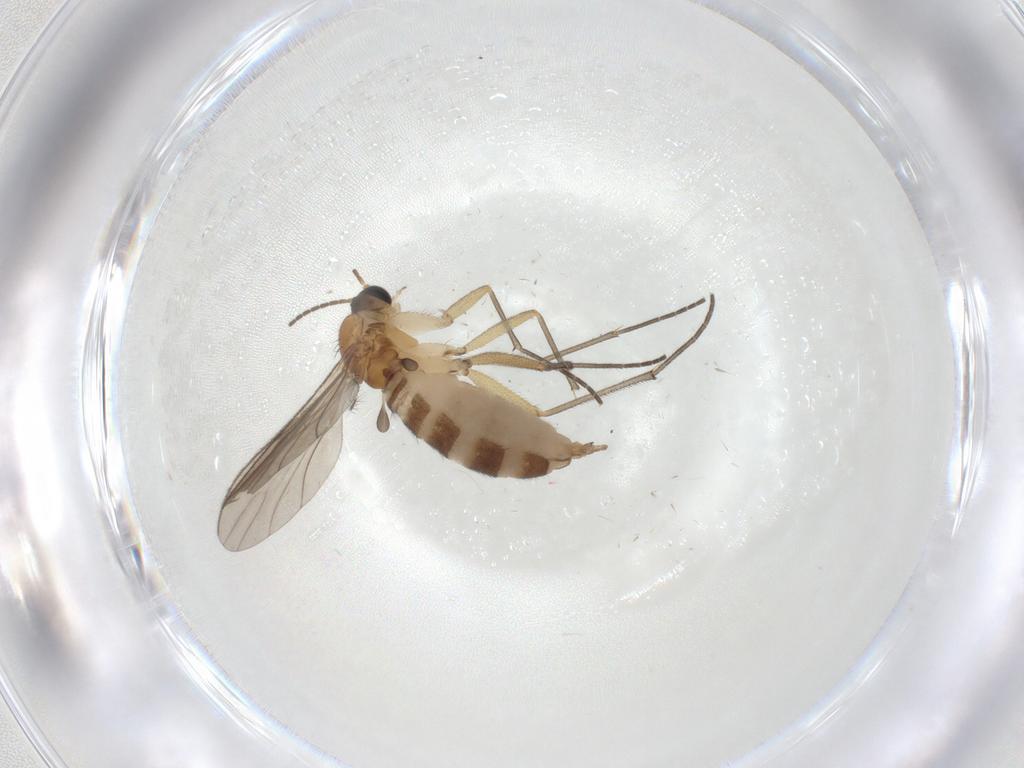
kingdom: Animalia
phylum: Arthropoda
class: Insecta
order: Diptera
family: Sciaridae
